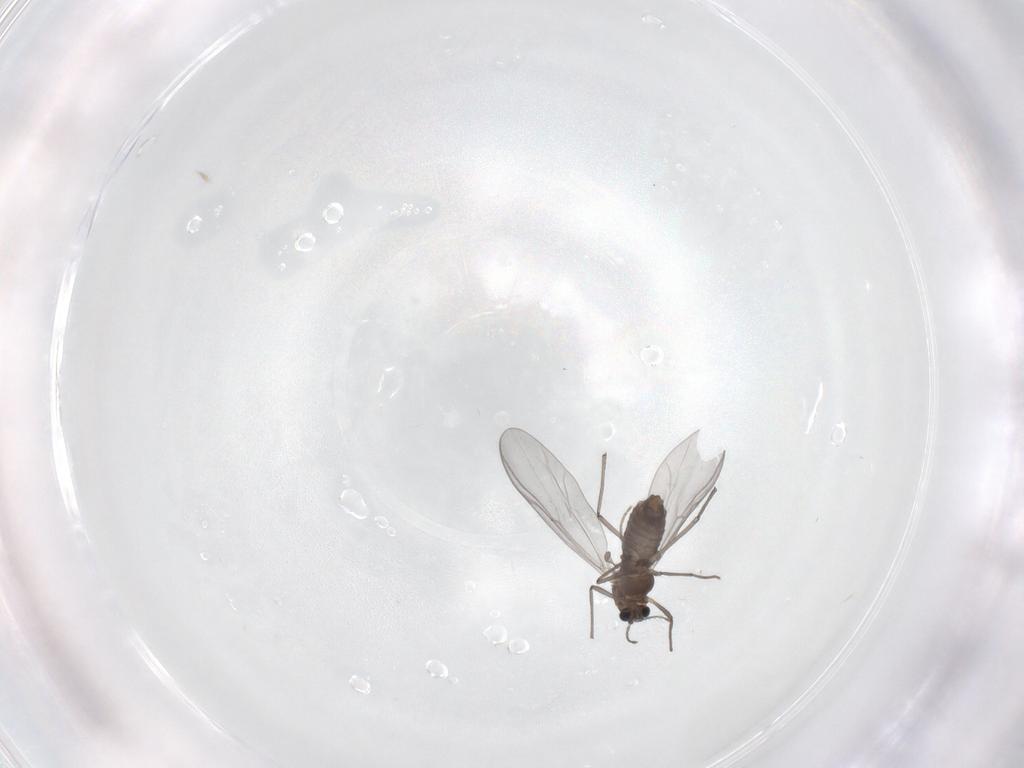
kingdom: Animalia
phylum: Arthropoda
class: Insecta
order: Diptera
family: Chironomidae
